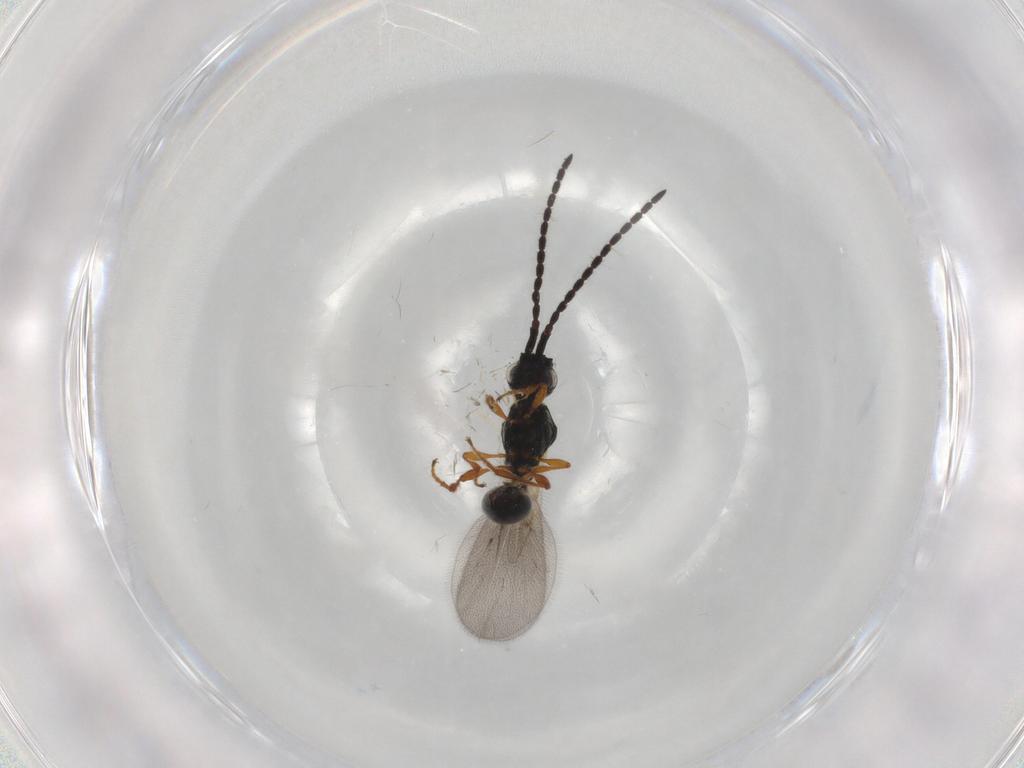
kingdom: Animalia
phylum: Arthropoda
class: Insecta
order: Hymenoptera
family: Diapriidae
